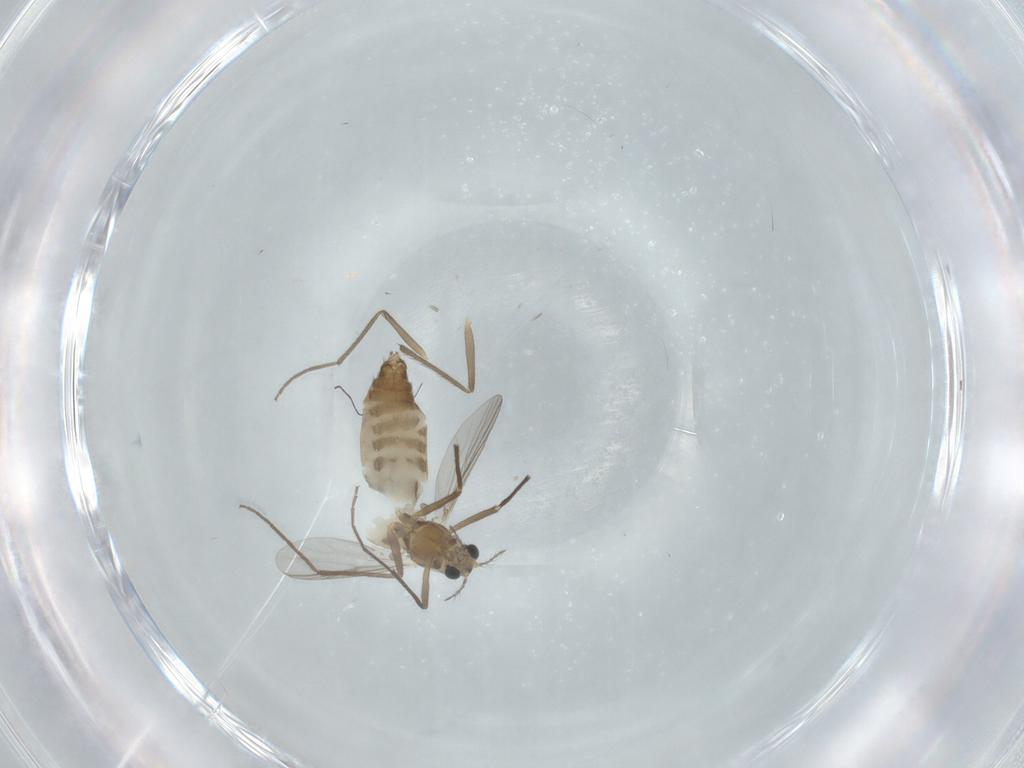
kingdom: Animalia
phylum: Arthropoda
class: Insecta
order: Diptera
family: Chironomidae
